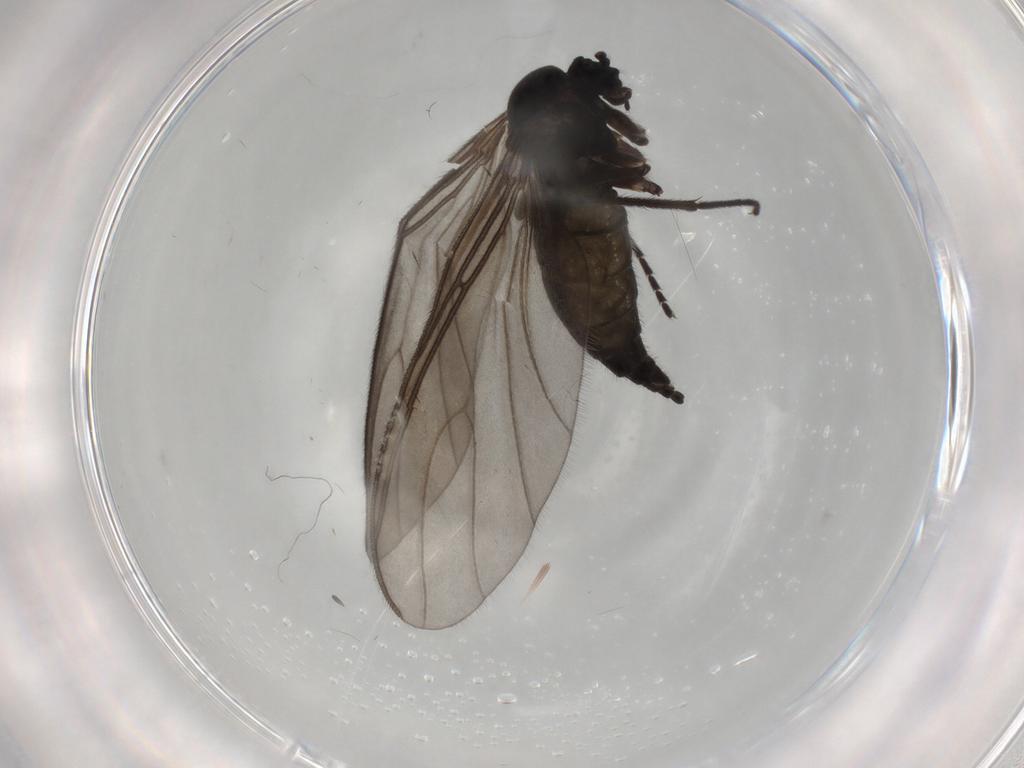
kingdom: Animalia
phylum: Arthropoda
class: Insecta
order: Diptera
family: Sciaridae
